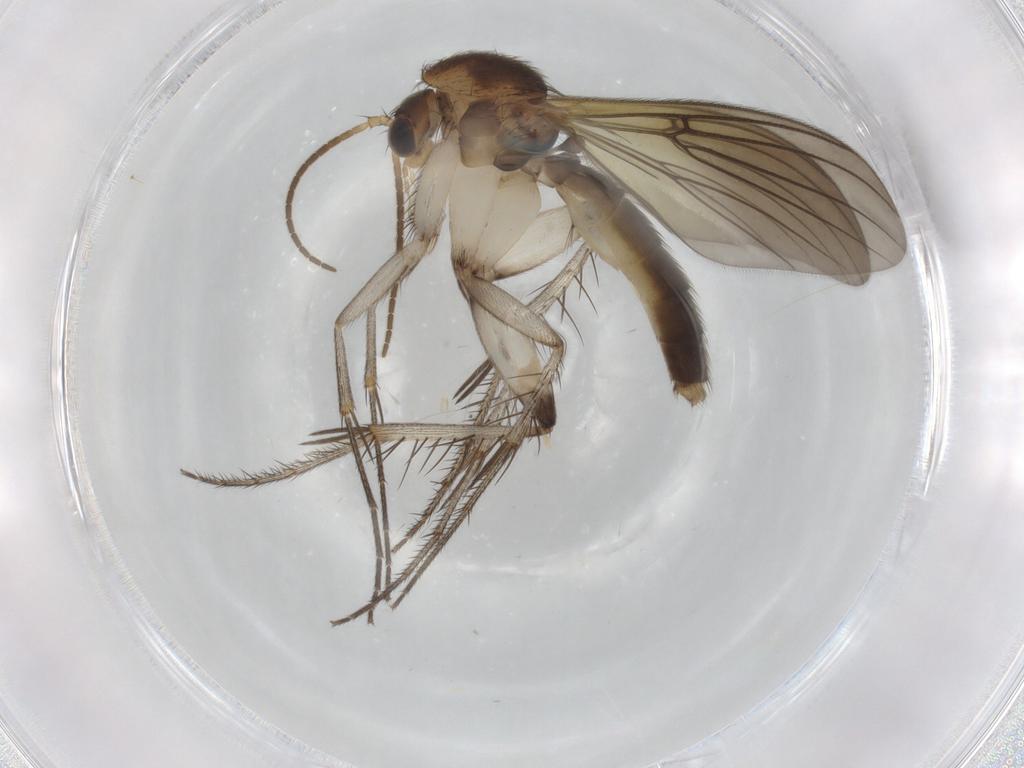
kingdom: Animalia
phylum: Arthropoda
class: Insecta
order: Diptera
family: Mycetophilidae
